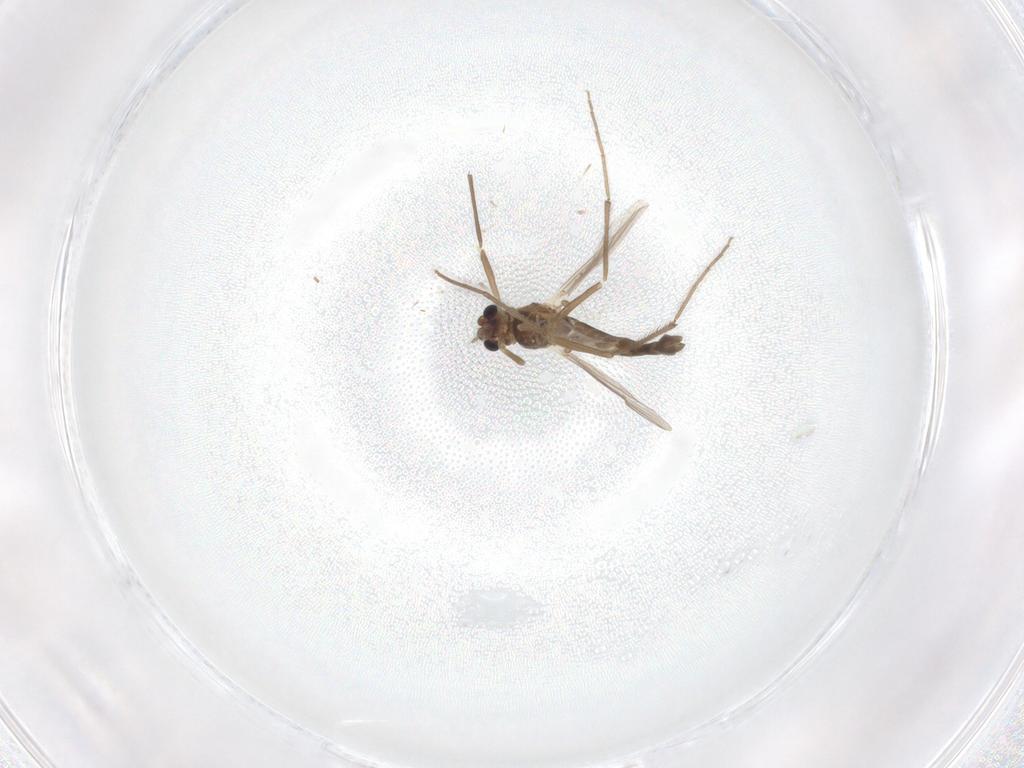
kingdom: Animalia
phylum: Arthropoda
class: Insecta
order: Diptera
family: Chironomidae
